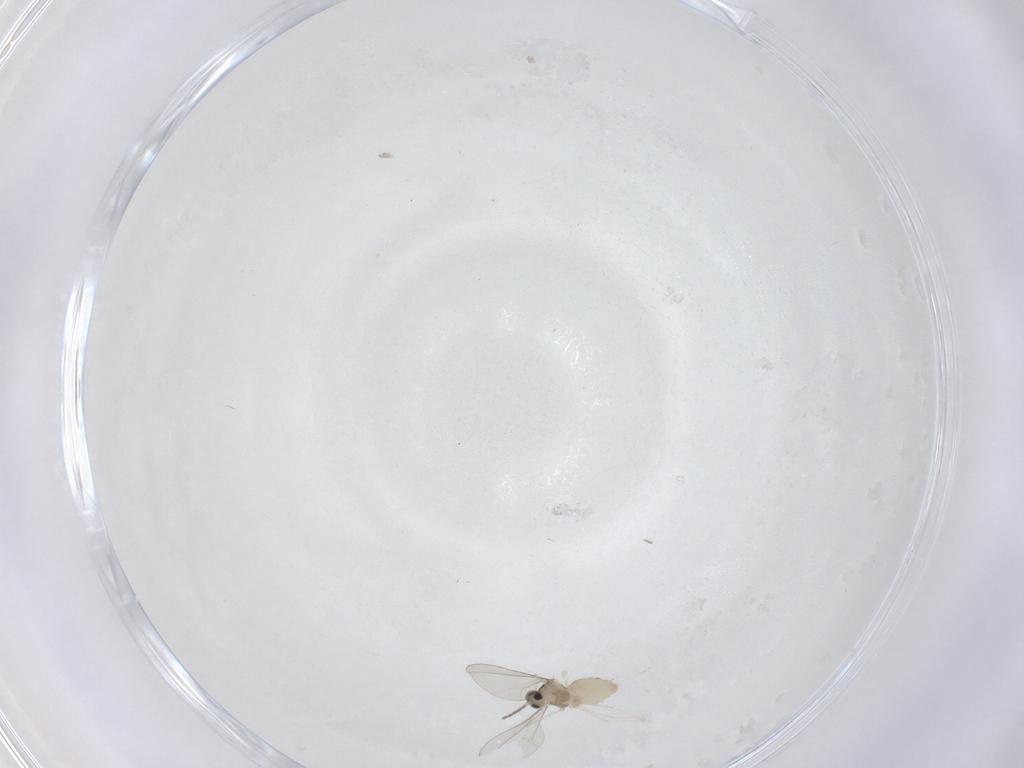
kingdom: Animalia
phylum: Arthropoda
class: Insecta
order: Diptera
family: Cecidomyiidae
